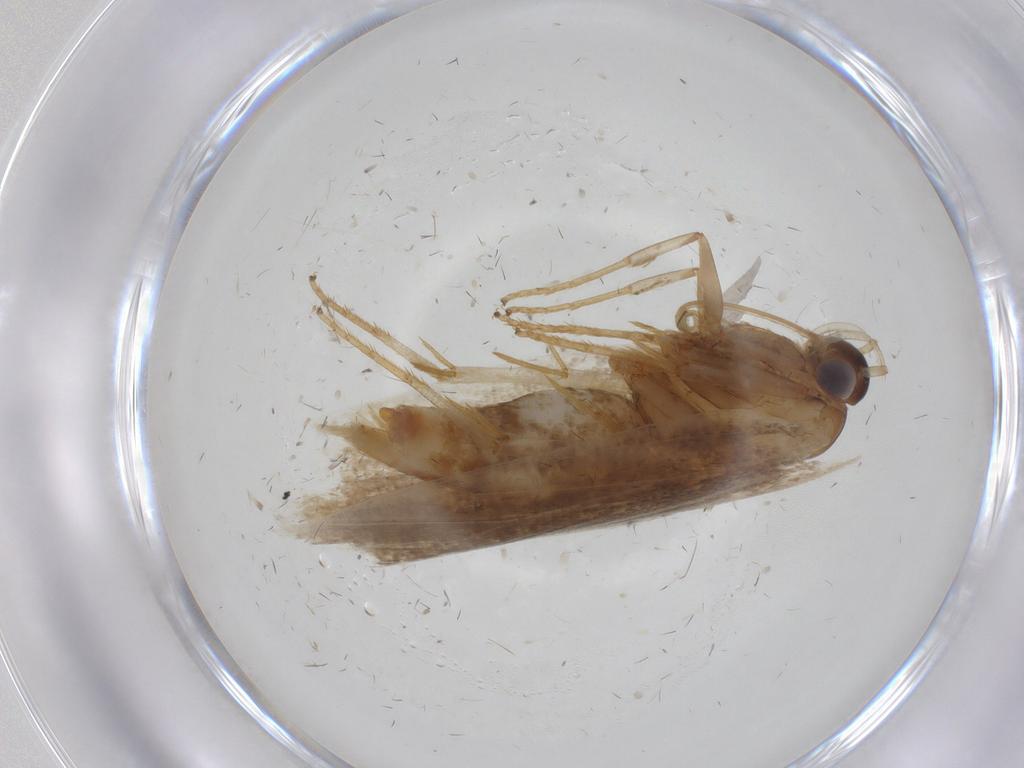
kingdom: Animalia
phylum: Arthropoda
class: Insecta
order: Lepidoptera
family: Oecophoridae
